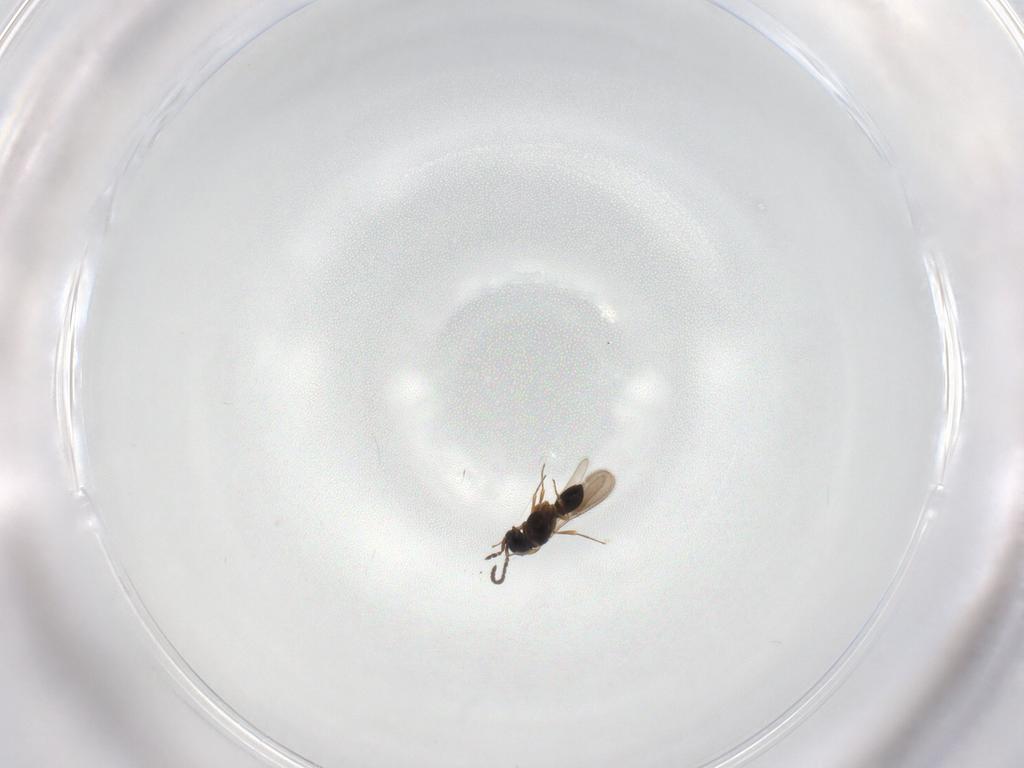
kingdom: Animalia
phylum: Arthropoda
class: Insecta
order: Hymenoptera
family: Scelionidae
